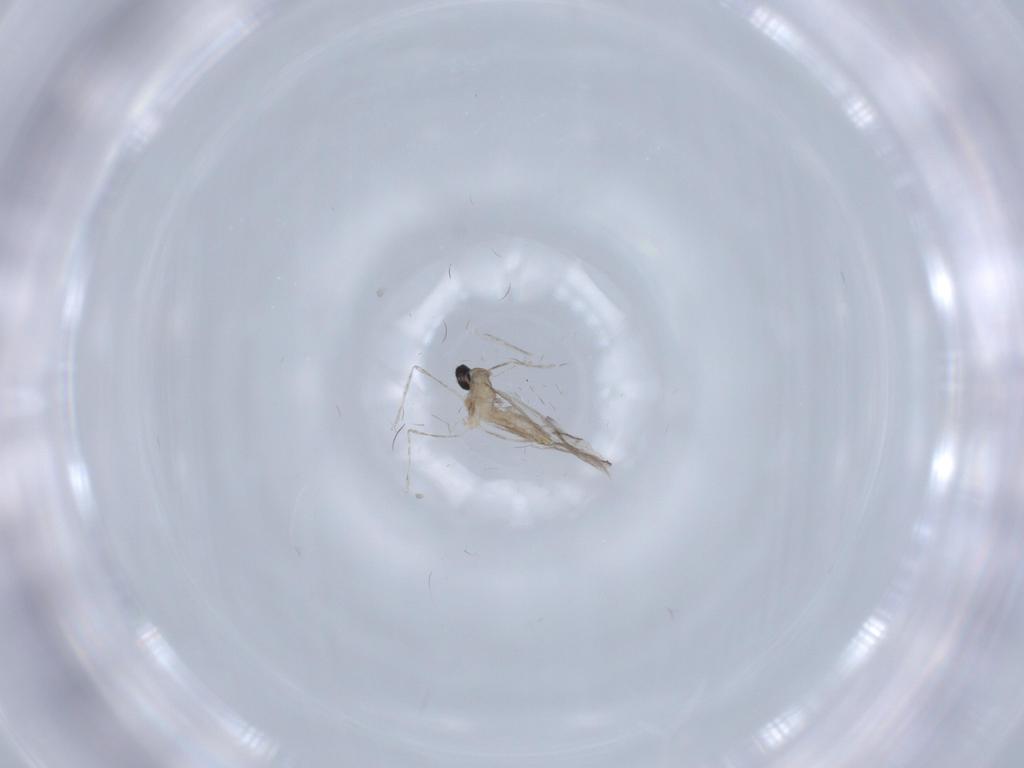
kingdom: Animalia
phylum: Arthropoda
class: Insecta
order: Diptera
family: Cecidomyiidae
